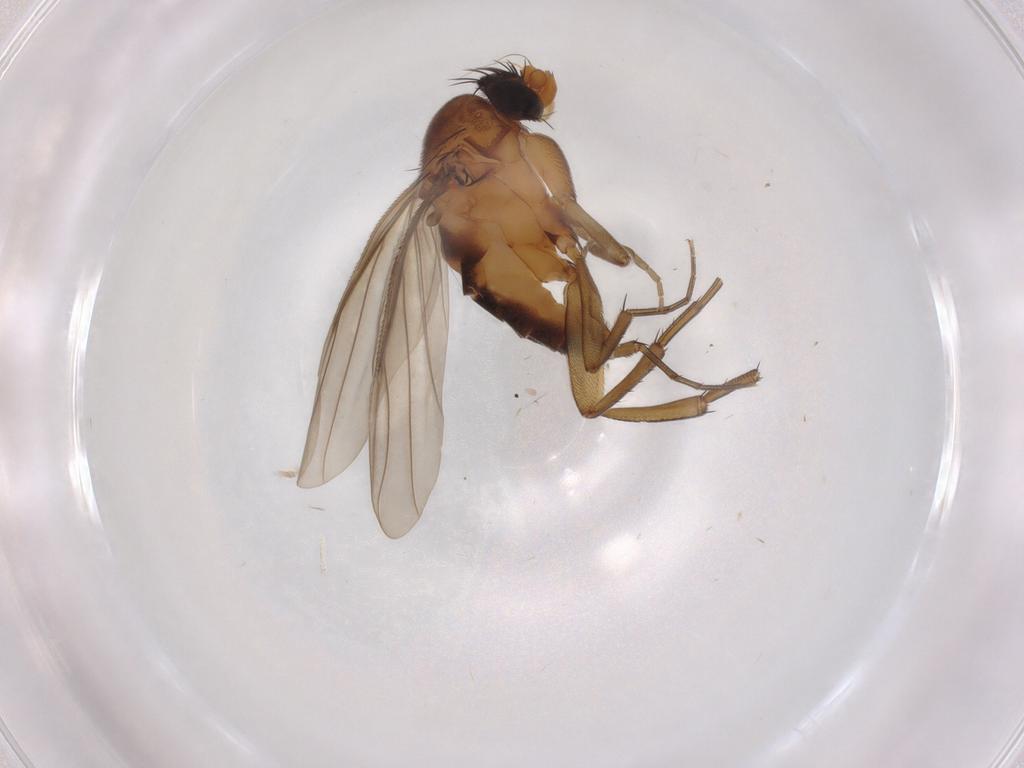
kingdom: Animalia
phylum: Arthropoda
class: Insecta
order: Diptera
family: Phoridae
